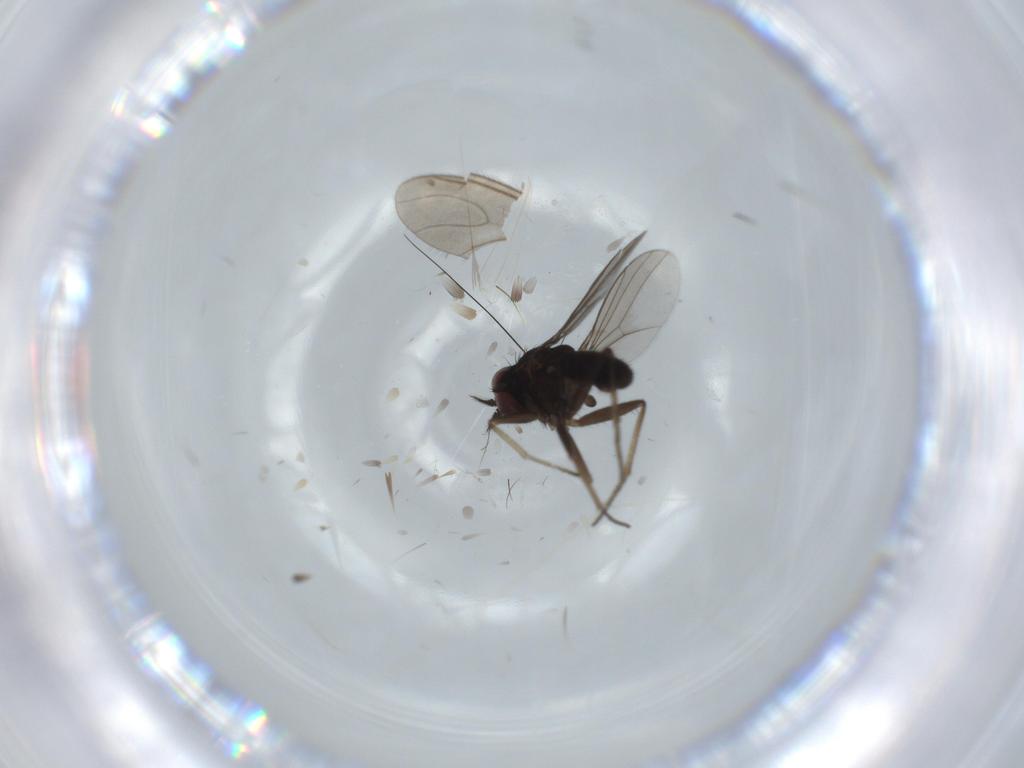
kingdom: Animalia
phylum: Arthropoda
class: Insecta
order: Diptera
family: Dolichopodidae
